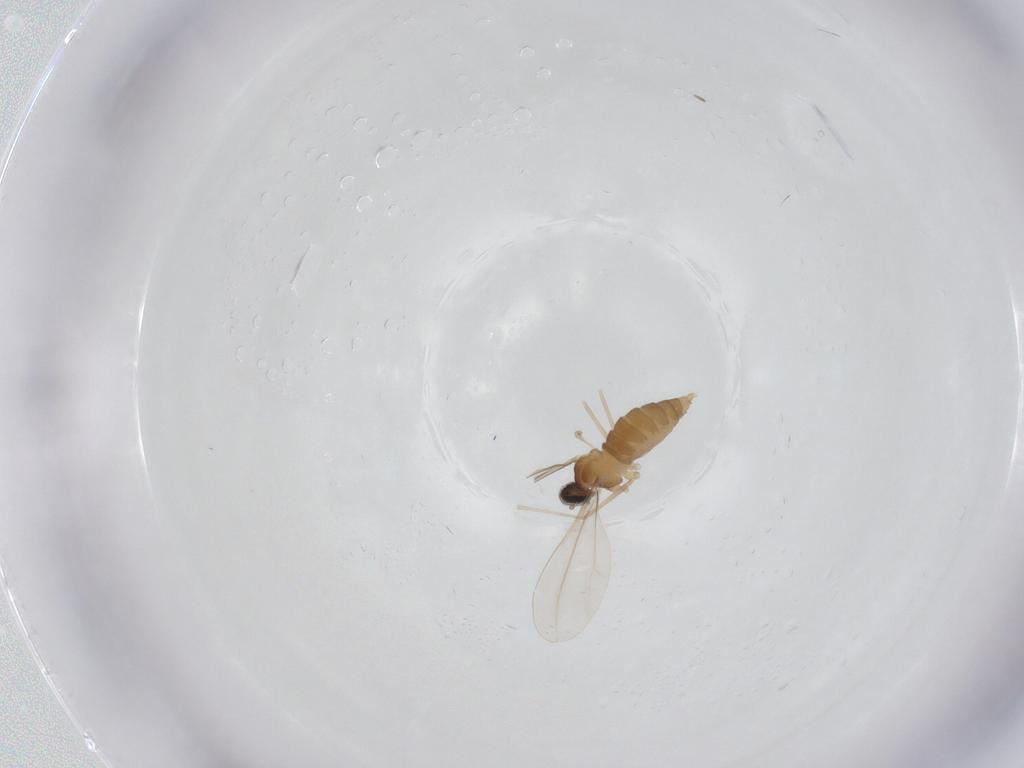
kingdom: Animalia
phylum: Arthropoda
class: Insecta
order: Diptera
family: Cecidomyiidae
